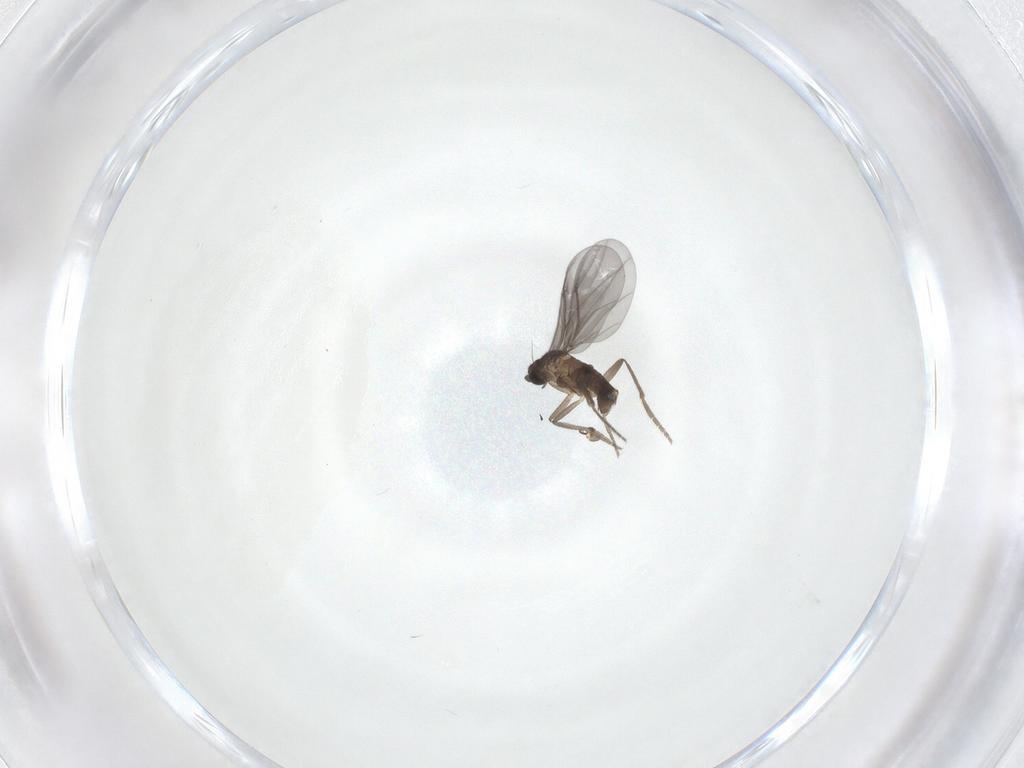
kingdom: Animalia
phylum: Arthropoda
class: Insecta
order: Diptera
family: Phoridae
